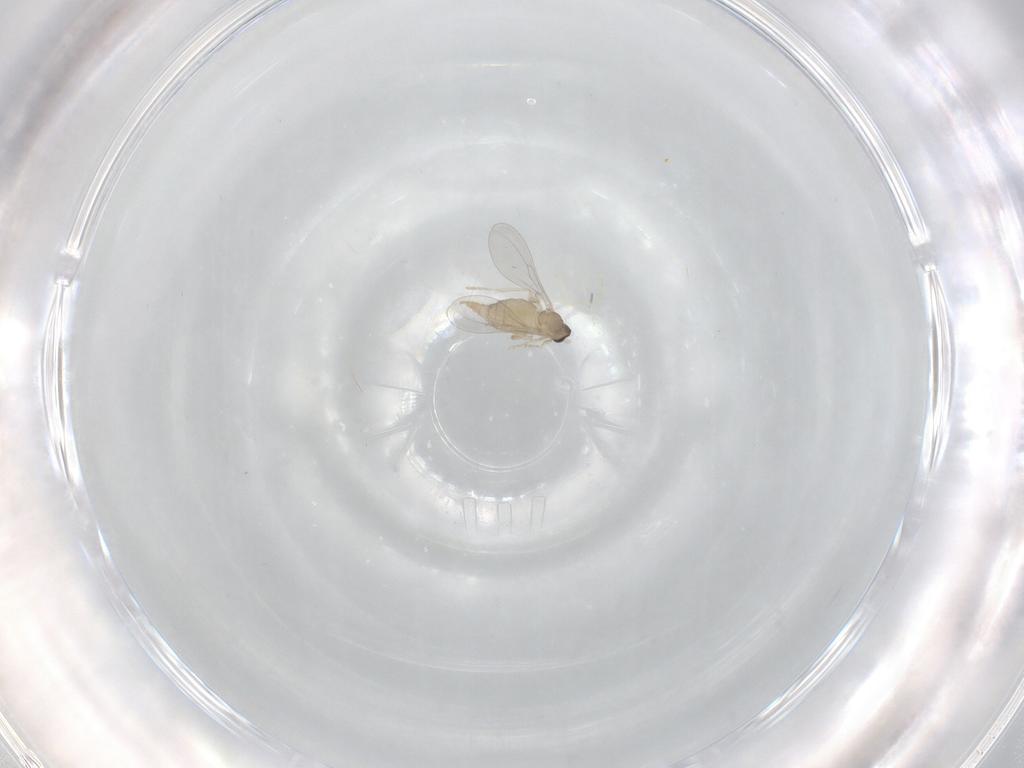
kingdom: Animalia
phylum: Arthropoda
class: Insecta
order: Diptera
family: Cecidomyiidae
